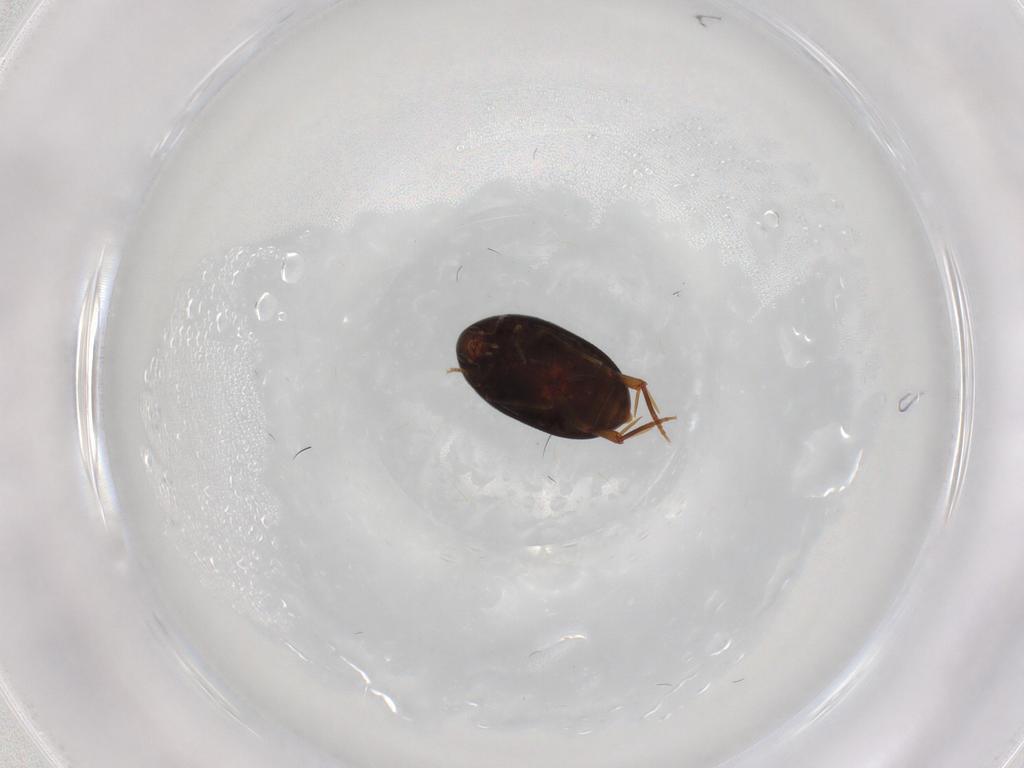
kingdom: Animalia
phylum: Arthropoda
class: Insecta
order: Coleoptera
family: Melandryidae
